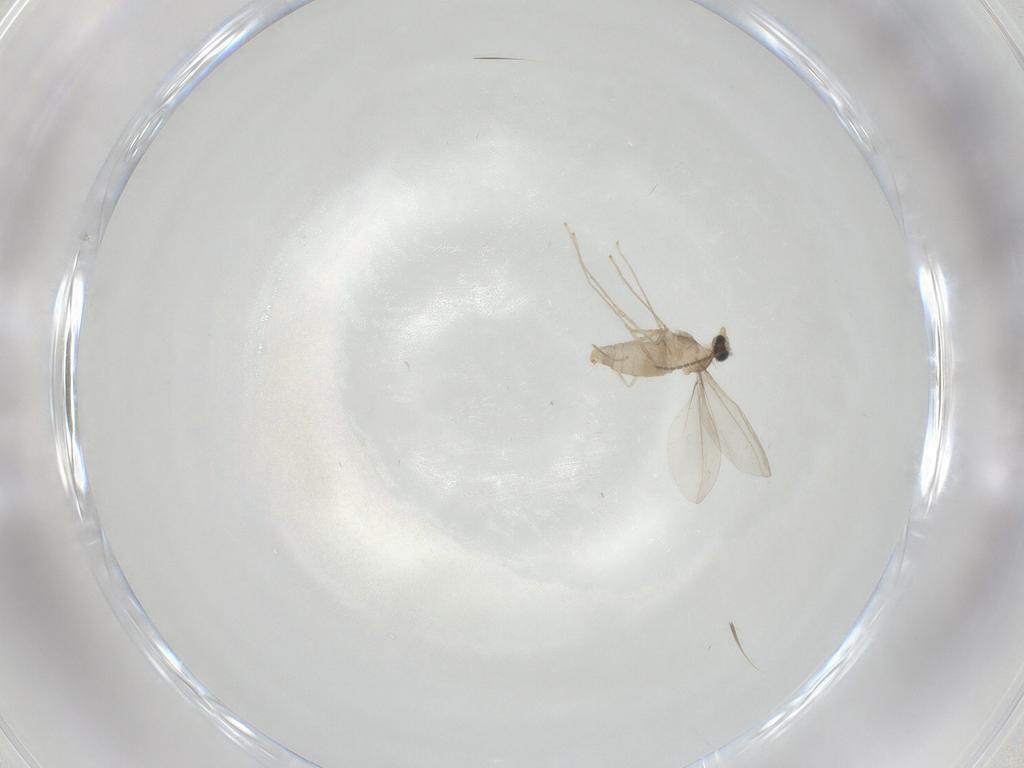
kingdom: Animalia
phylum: Arthropoda
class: Insecta
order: Diptera
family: Cecidomyiidae
